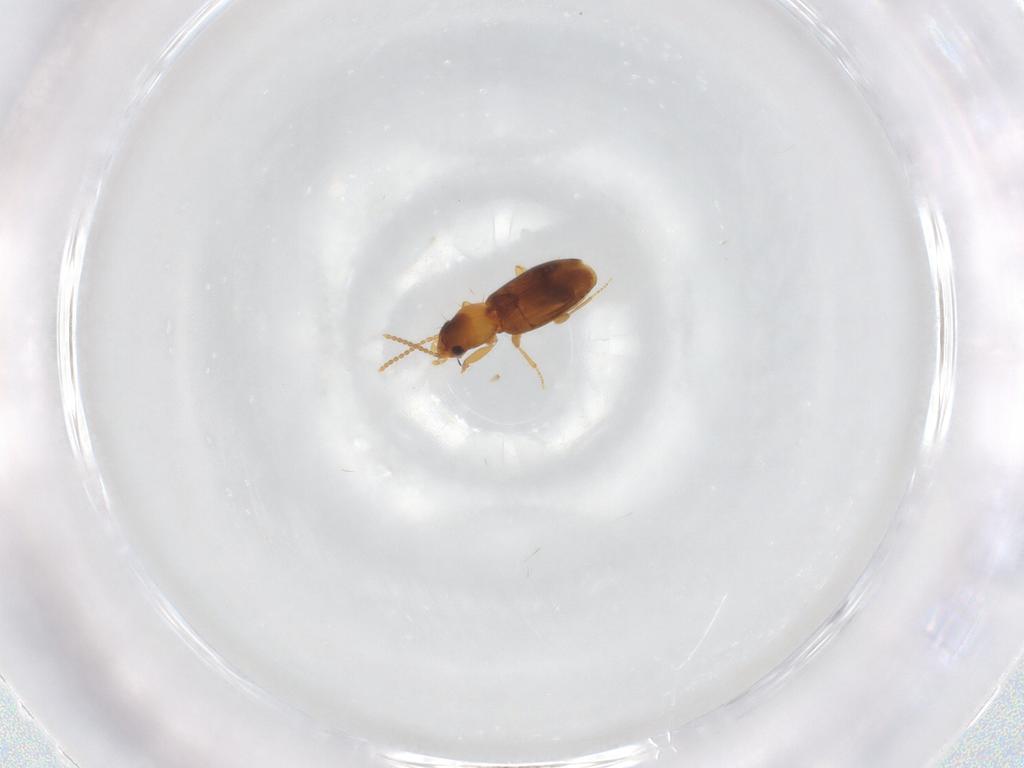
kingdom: Animalia
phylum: Arthropoda
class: Insecta
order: Coleoptera
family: Carabidae
